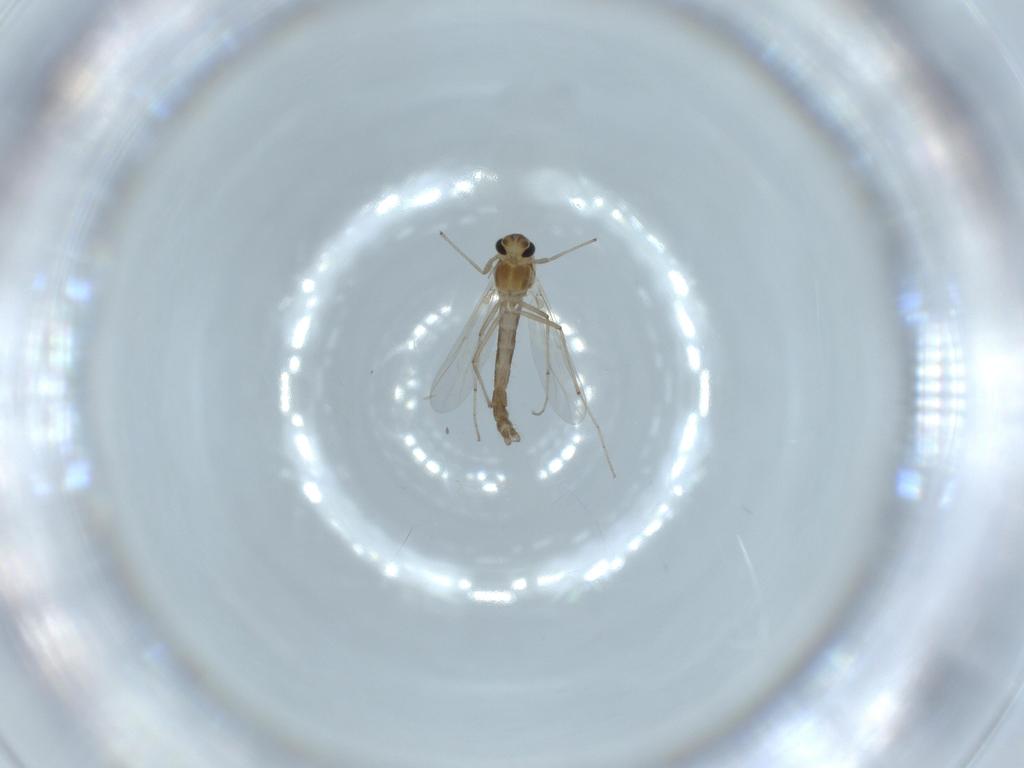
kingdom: Animalia
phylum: Arthropoda
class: Insecta
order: Diptera
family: Chironomidae
